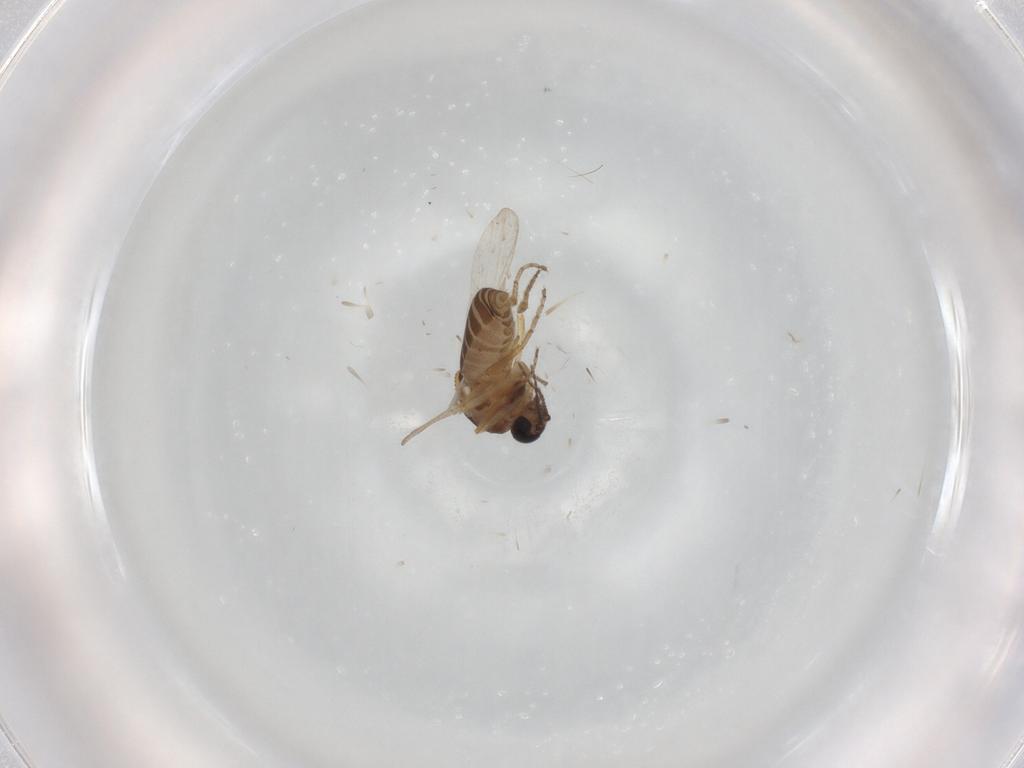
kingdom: Animalia
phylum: Arthropoda
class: Insecta
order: Diptera
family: Ceratopogonidae
